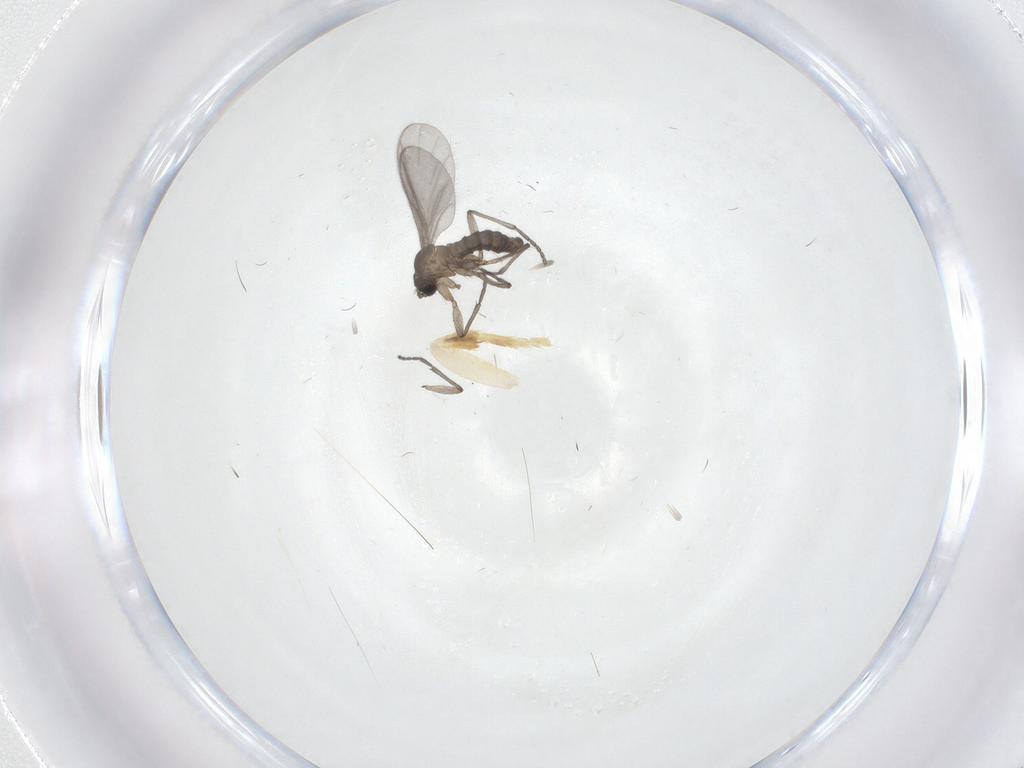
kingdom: Animalia
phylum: Arthropoda
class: Insecta
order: Diptera
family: Sciaridae
